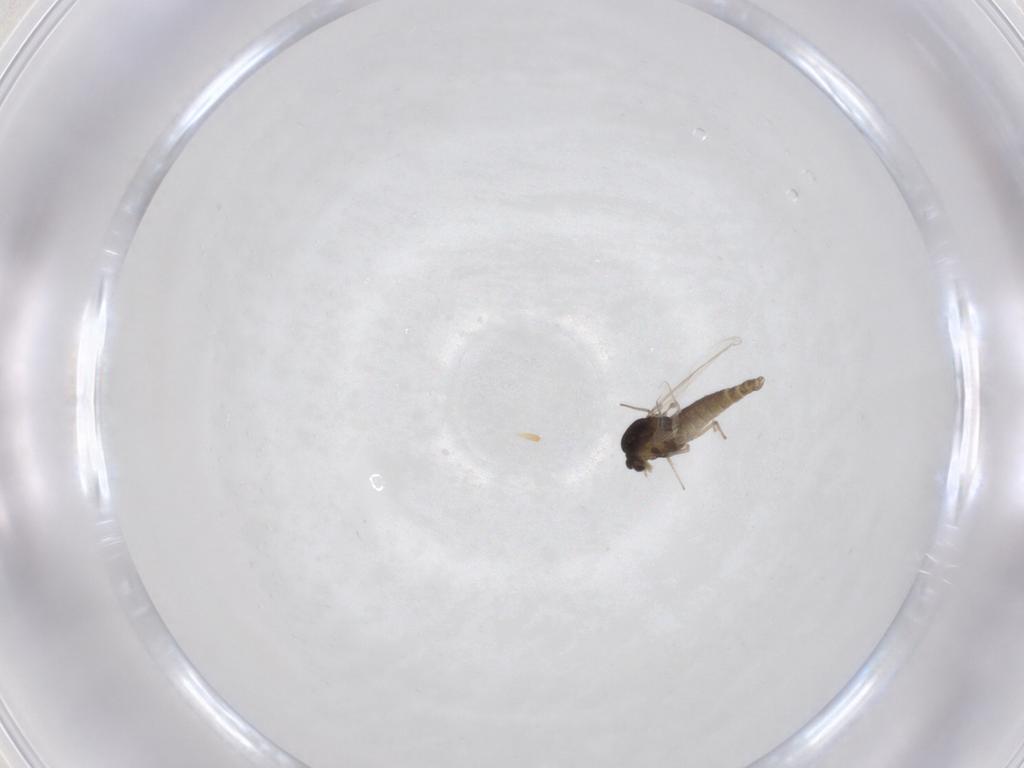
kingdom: Animalia
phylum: Arthropoda
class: Insecta
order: Diptera
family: Chironomidae
